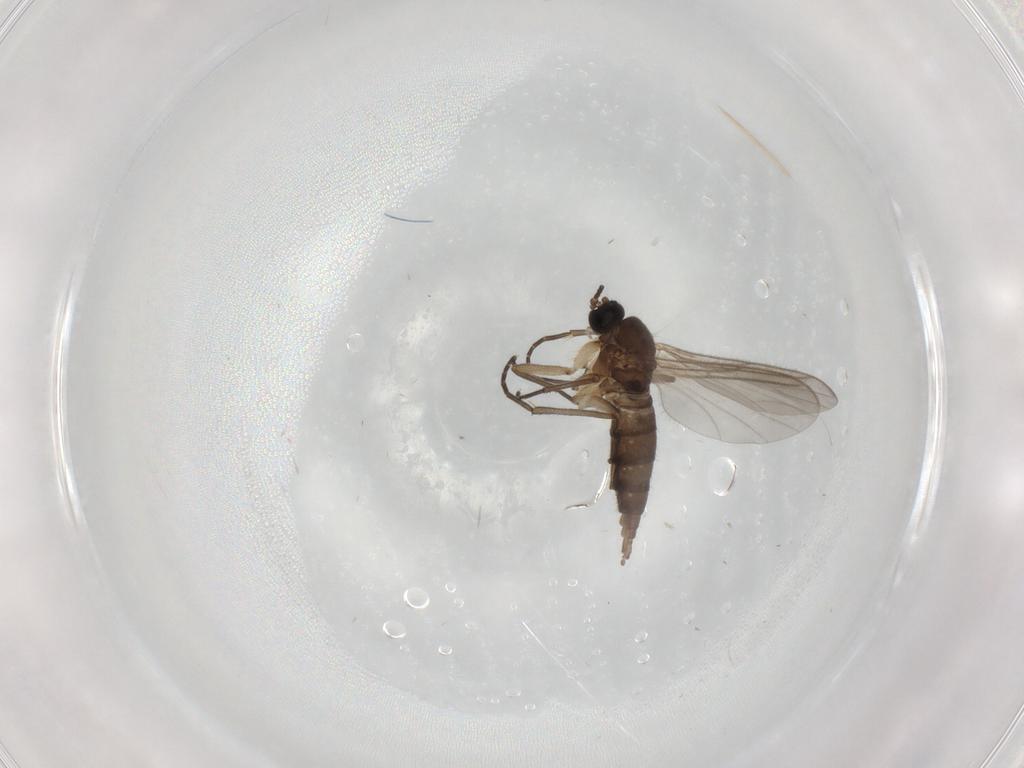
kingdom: Animalia
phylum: Arthropoda
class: Insecta
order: Diptera
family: Sciaridae
